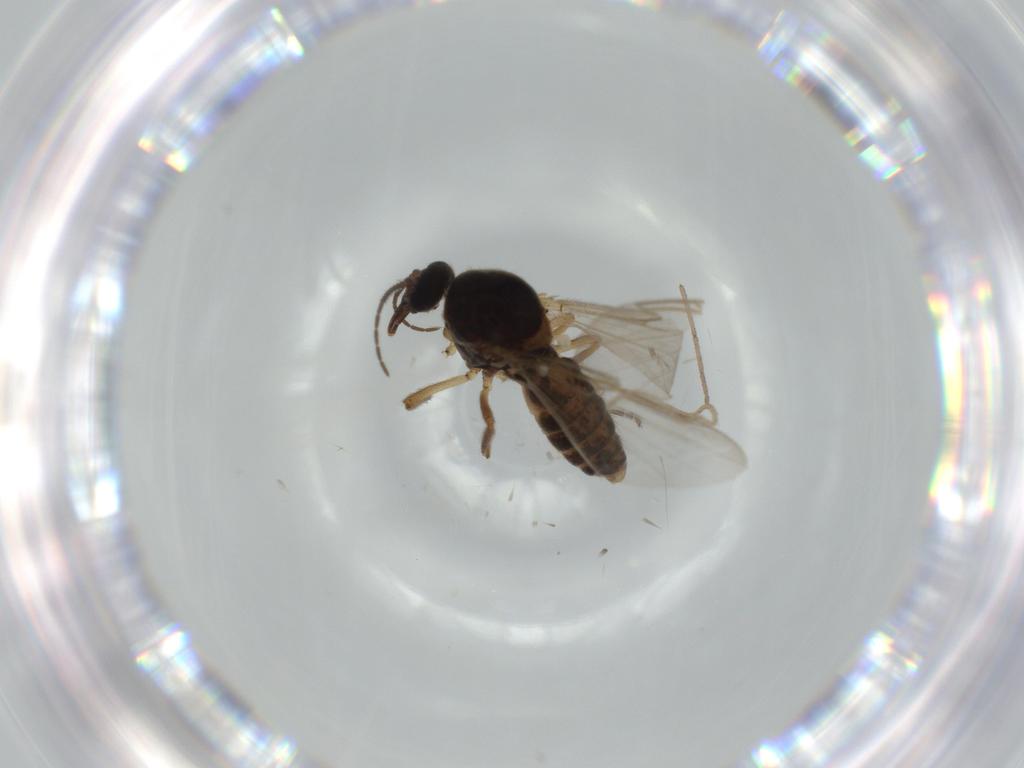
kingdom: Animalia
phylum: Arthropoda
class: Insecta
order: Diptera
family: Ceratopogonidae
